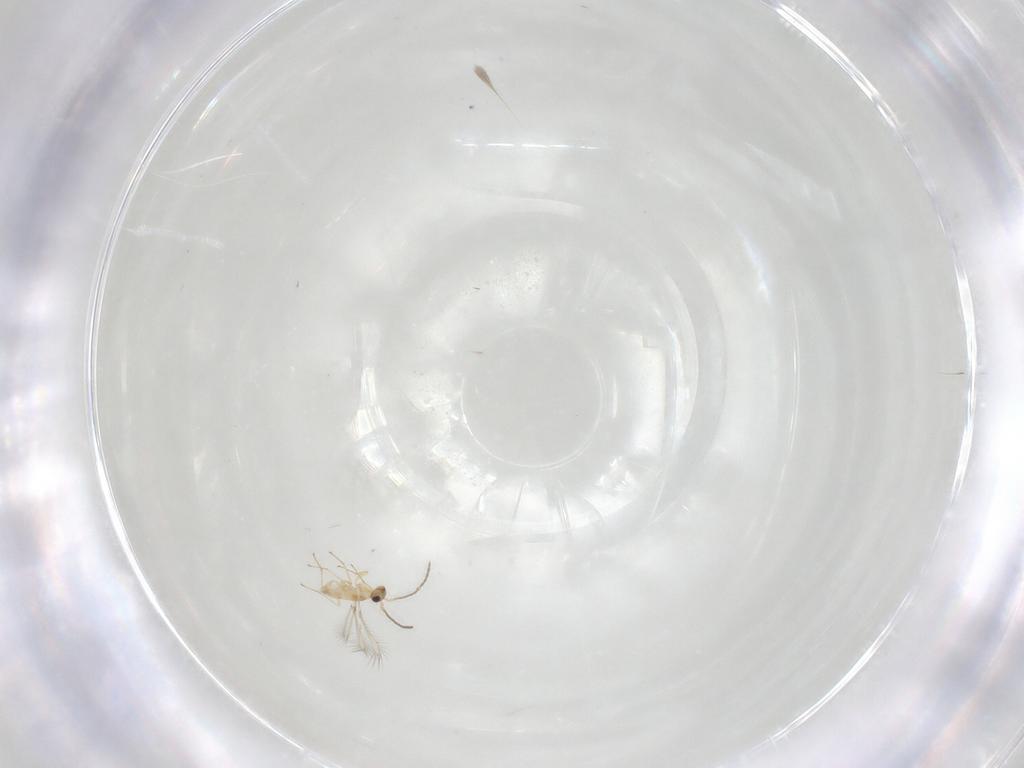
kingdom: Animalia
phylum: Arthropoda
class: Collembola
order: Entomobryomorpha
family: Entomobryidae
